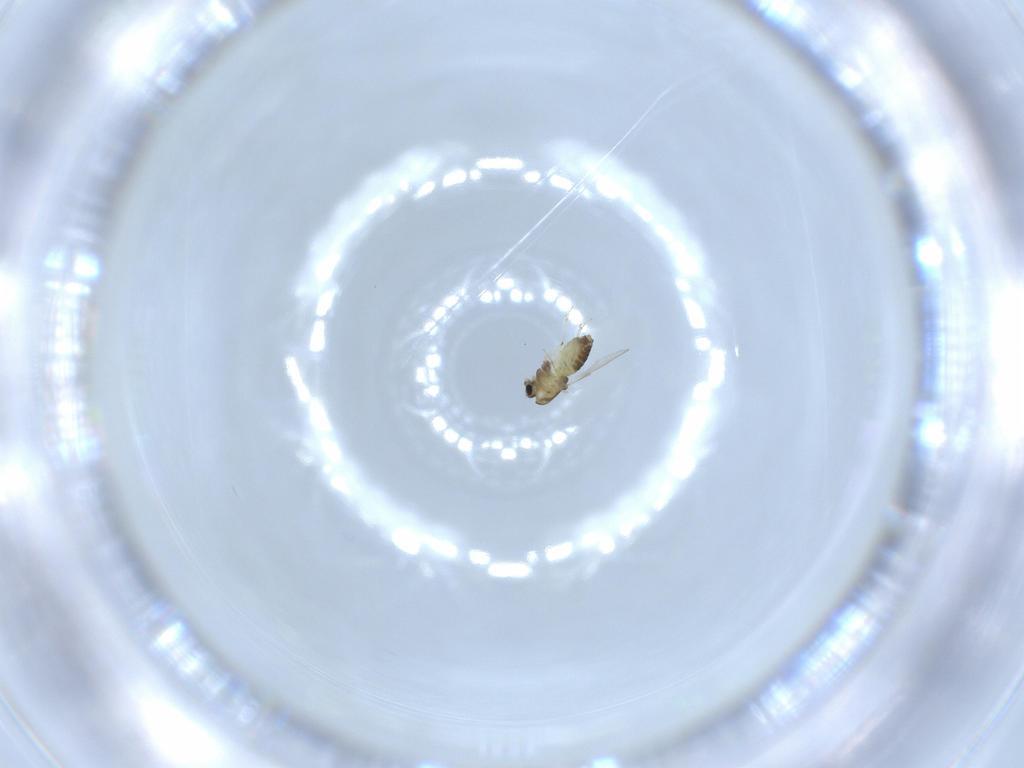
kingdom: Animalia
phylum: Arthropoda
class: Insecta
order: Diptera
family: Chironomidae
